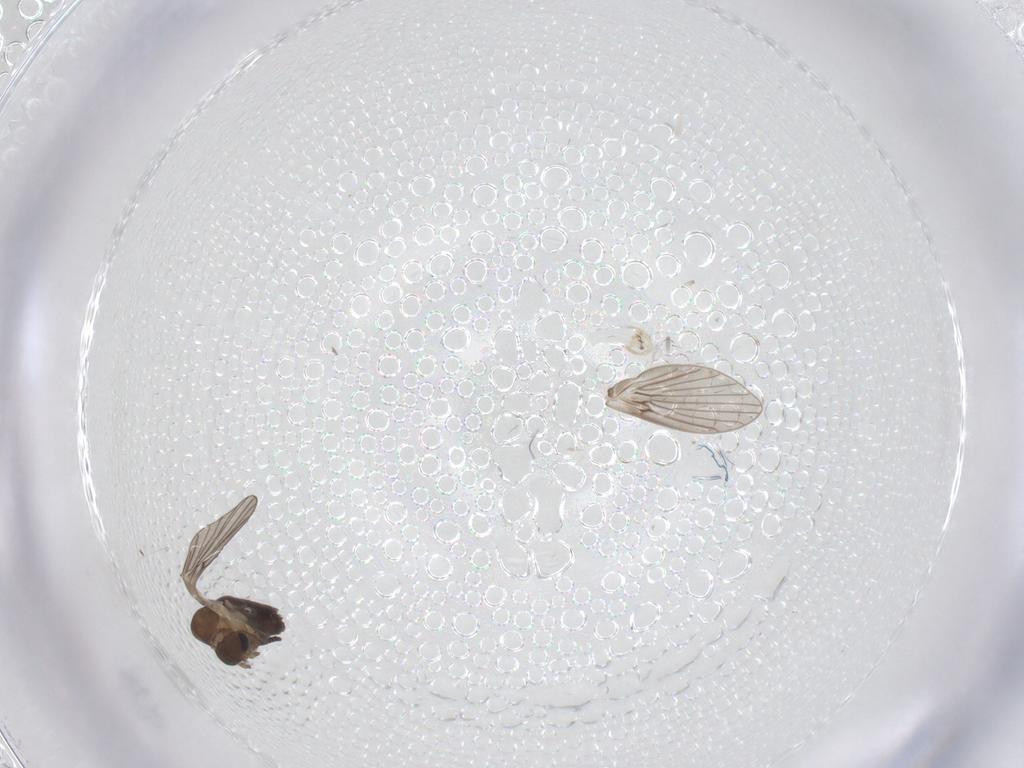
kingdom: Animalia
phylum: Arthropoda
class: Insecta
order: Diptera
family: Psychodidae
